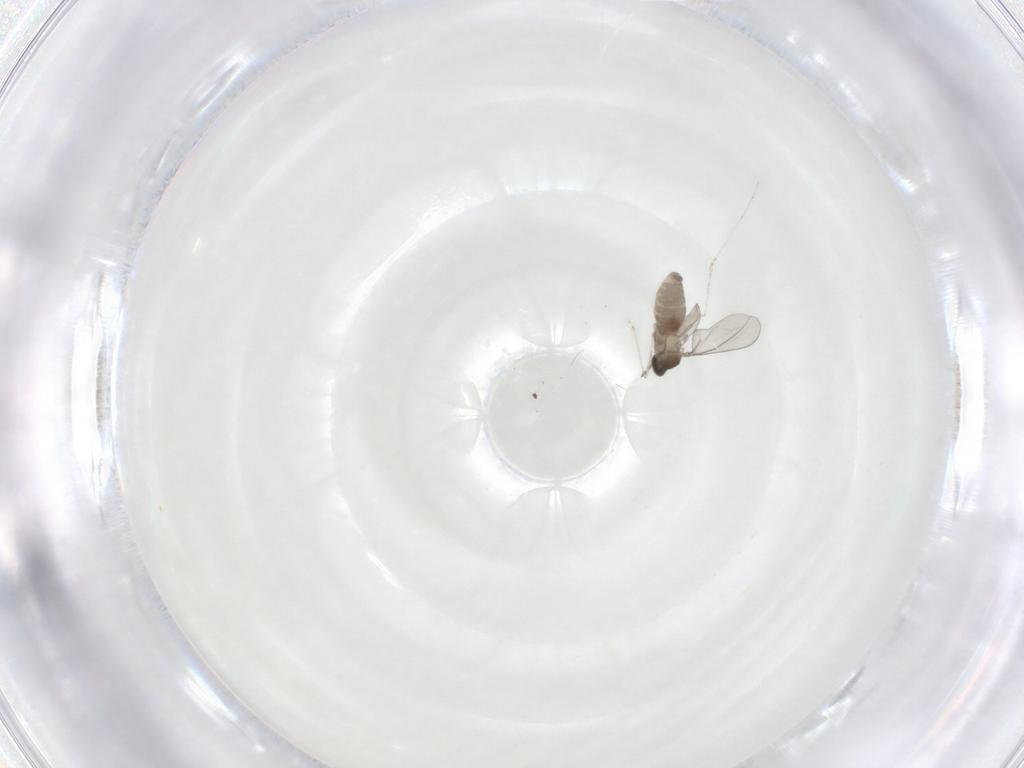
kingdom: Animalia
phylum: Arthropoda
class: Insecta
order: Diptera
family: Cecidomyiidae
